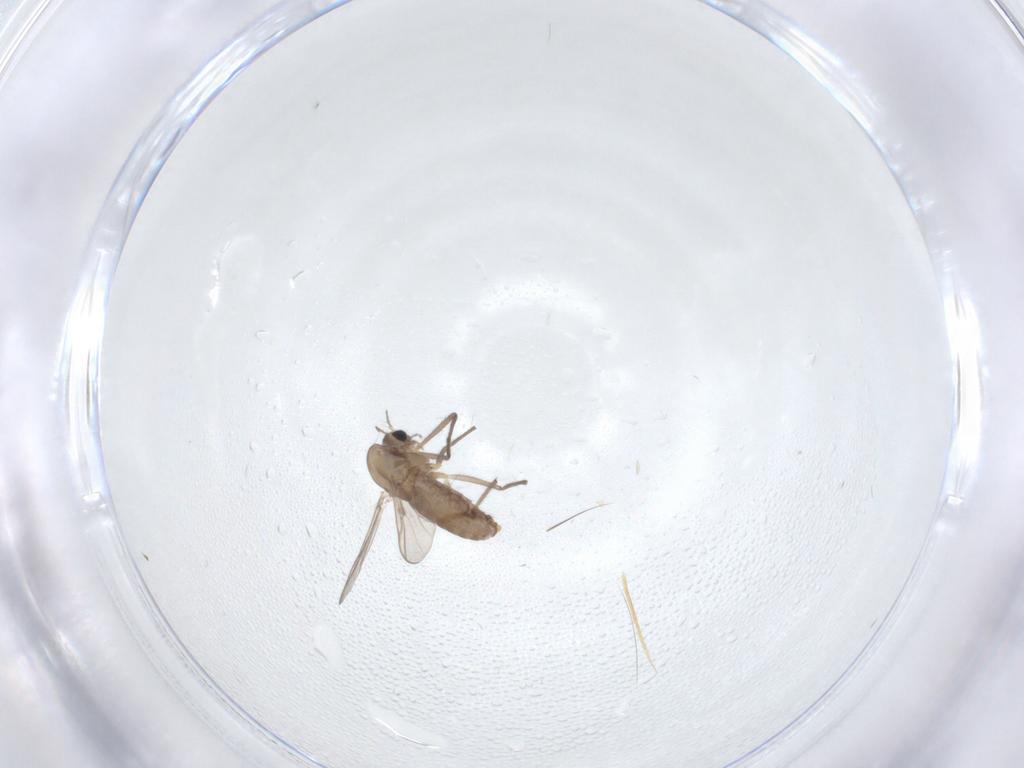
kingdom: Animalia
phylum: Arthropoda
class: Insecta
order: Diptera
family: Chironomidae
